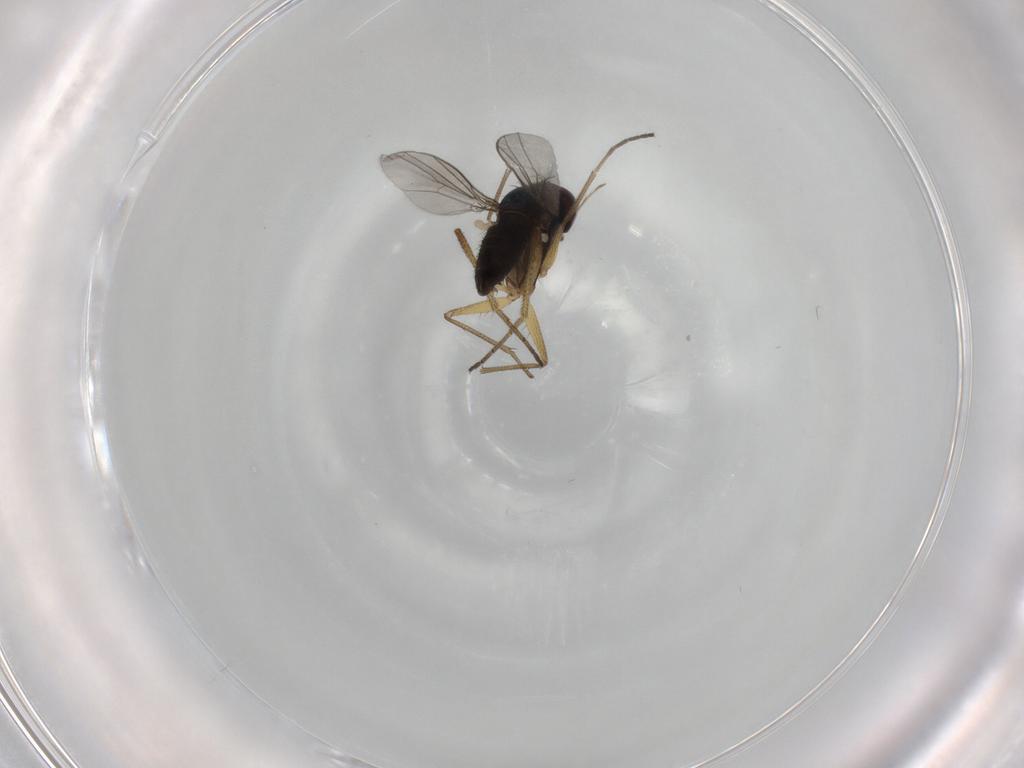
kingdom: Animalia
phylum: Arthropoda
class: Insecta
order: Diptera
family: Dolichopodidae
